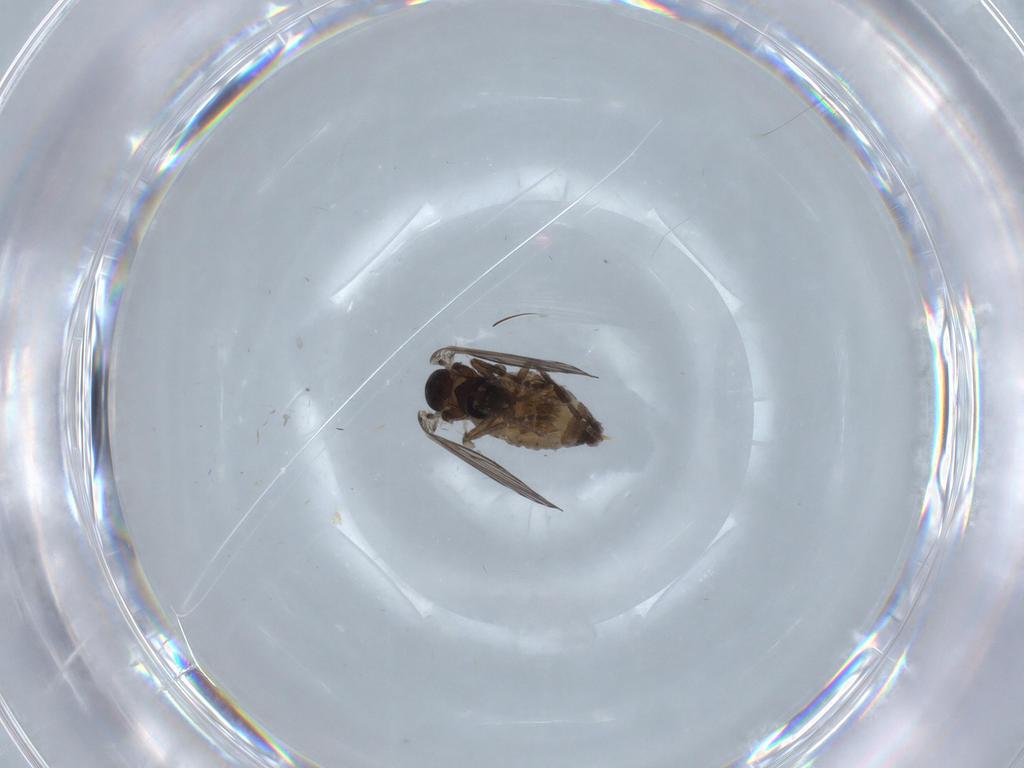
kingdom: Animalia
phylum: Arthropoda
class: Insecta
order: Diptera
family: Psychodidae
